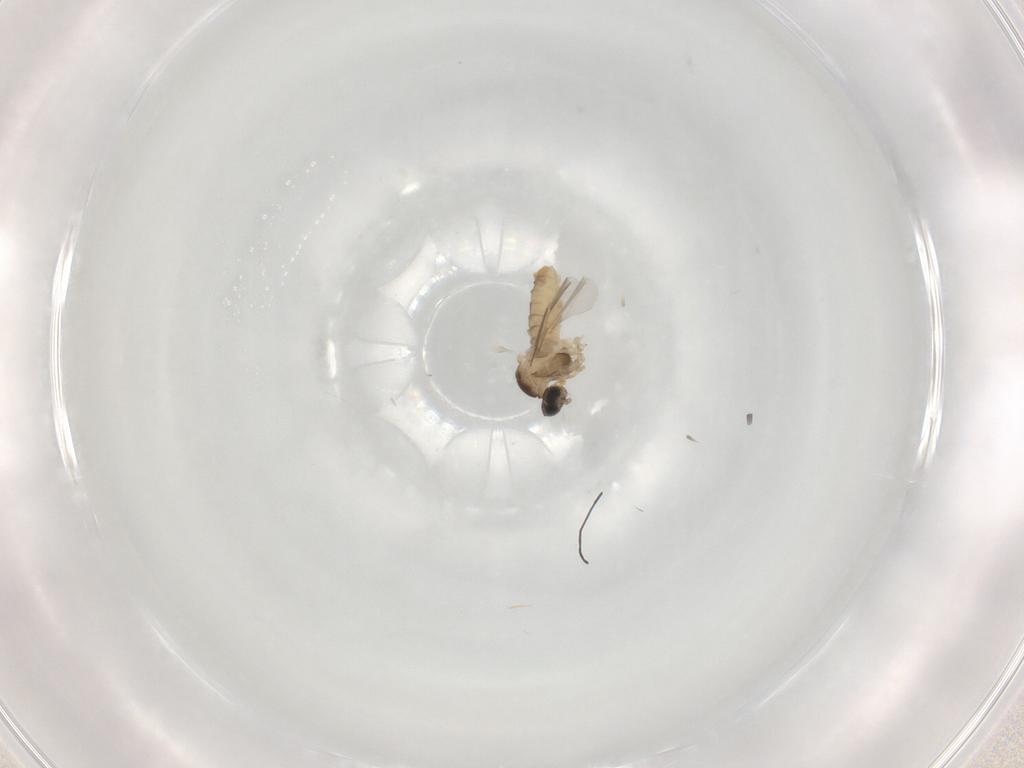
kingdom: Animalia
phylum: Arthropoda
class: Insecta
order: Diptera
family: Cecidomyiidae
